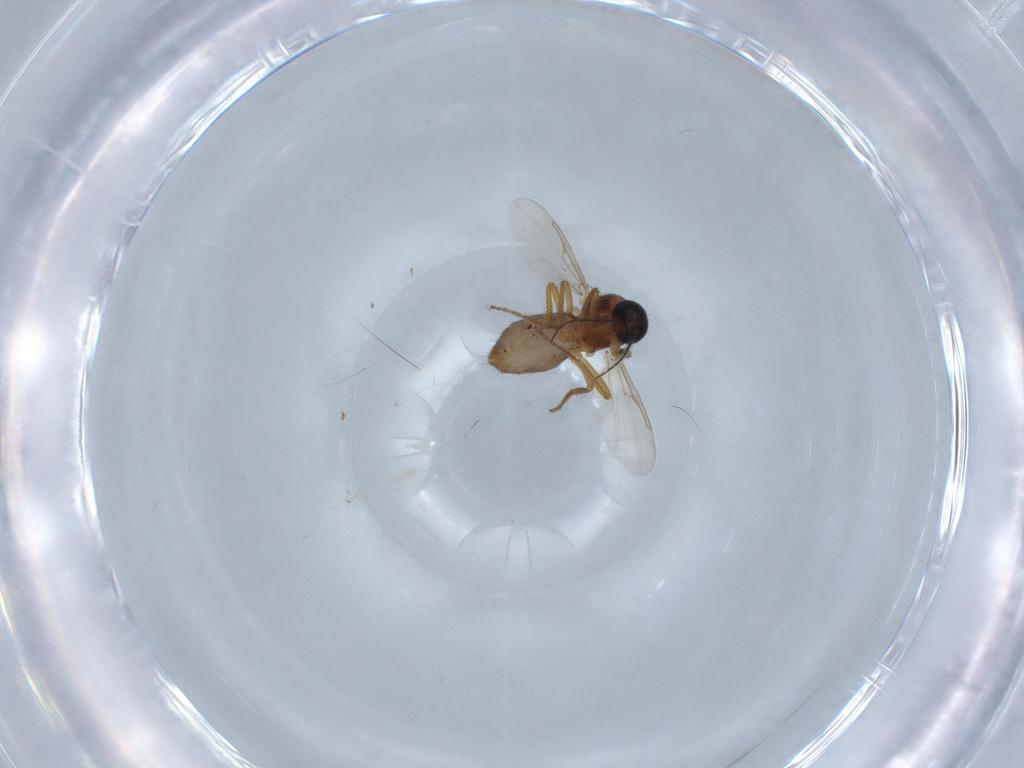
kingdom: Animalia
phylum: Arthropoda
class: Insecta
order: Diptera
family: Ceratopogonidae
